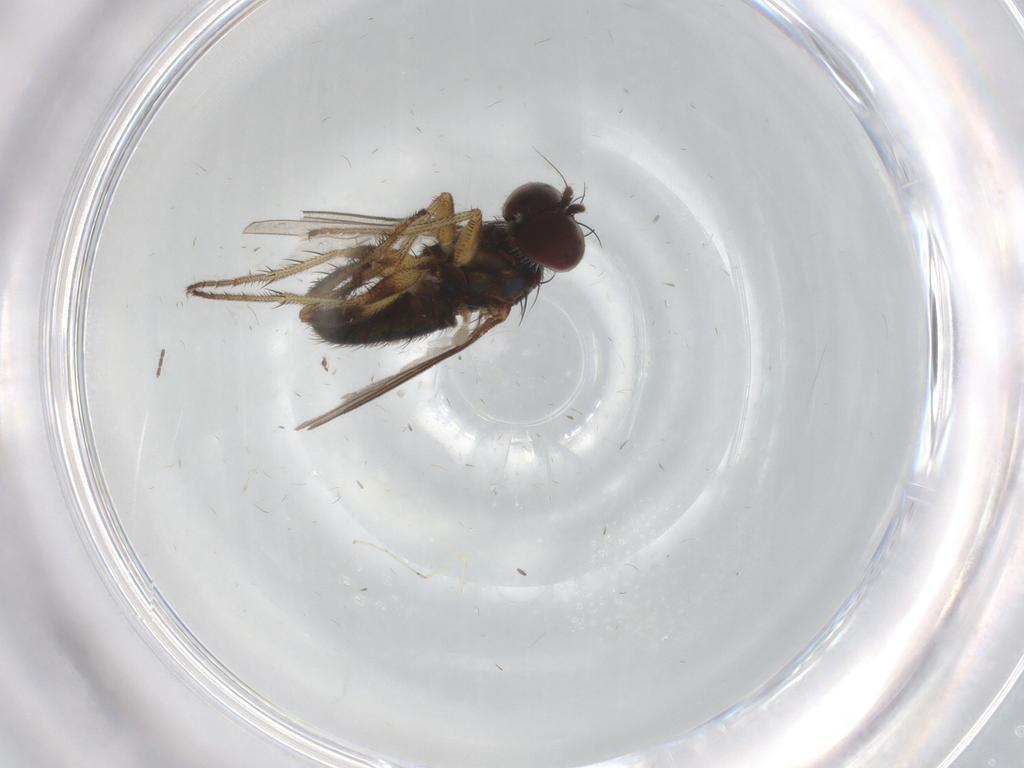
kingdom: Animalia
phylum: Arthropoda
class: Insecta
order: Diptera
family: Dolichopodidae
